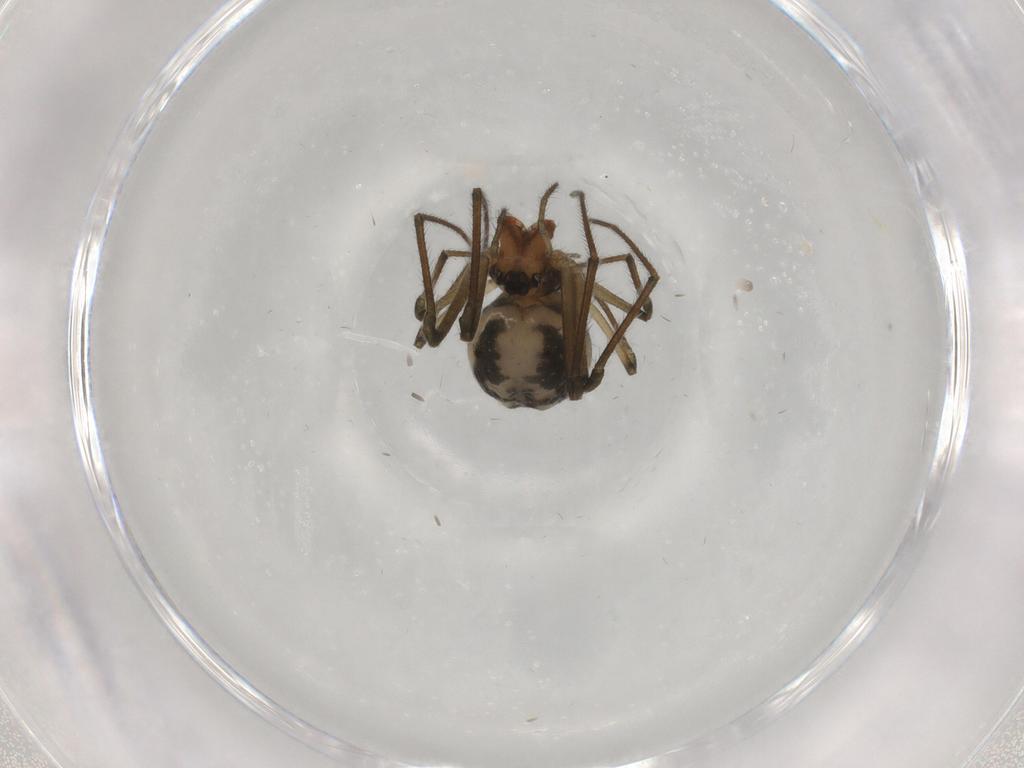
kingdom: Animalia
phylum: Arthropoda
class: Arachnida
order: Araneae
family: Tetragnathidae
